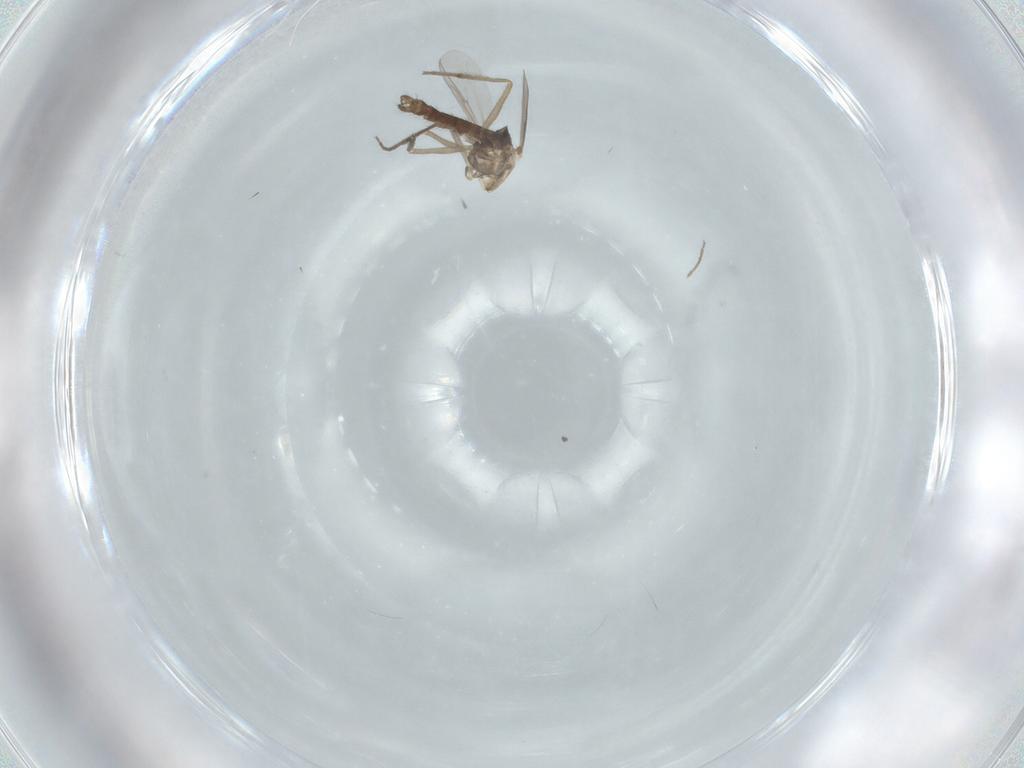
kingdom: Animalia
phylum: Arthropoda
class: Insecta
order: Diptera
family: Chironomidae
